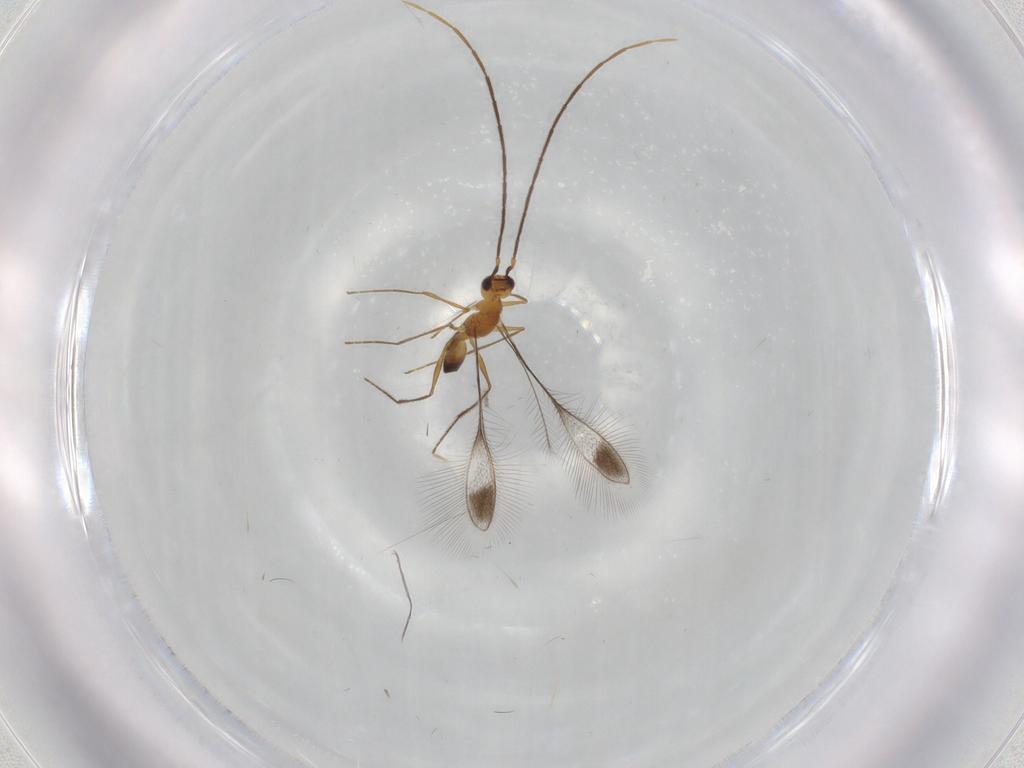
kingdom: Animalia
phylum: Arthropoda
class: Insecta
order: Hymenoptera
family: Mymaridae
